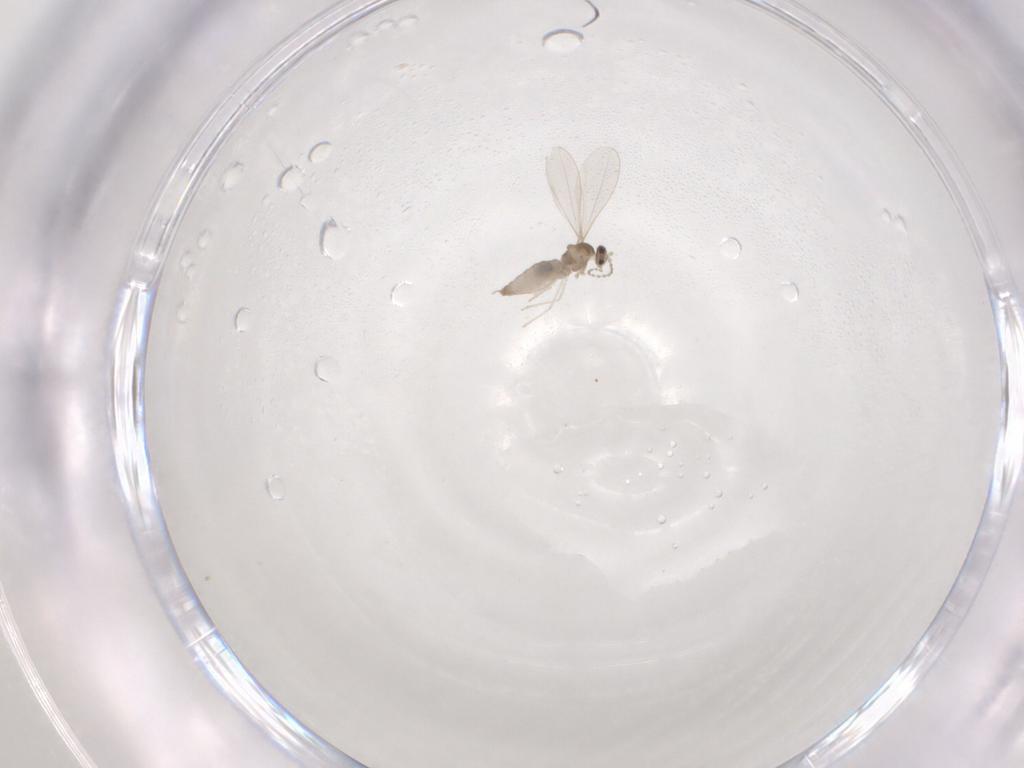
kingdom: Animalia
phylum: Arthropoda
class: Insecta
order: Diptera
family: Cecidomyiidae
